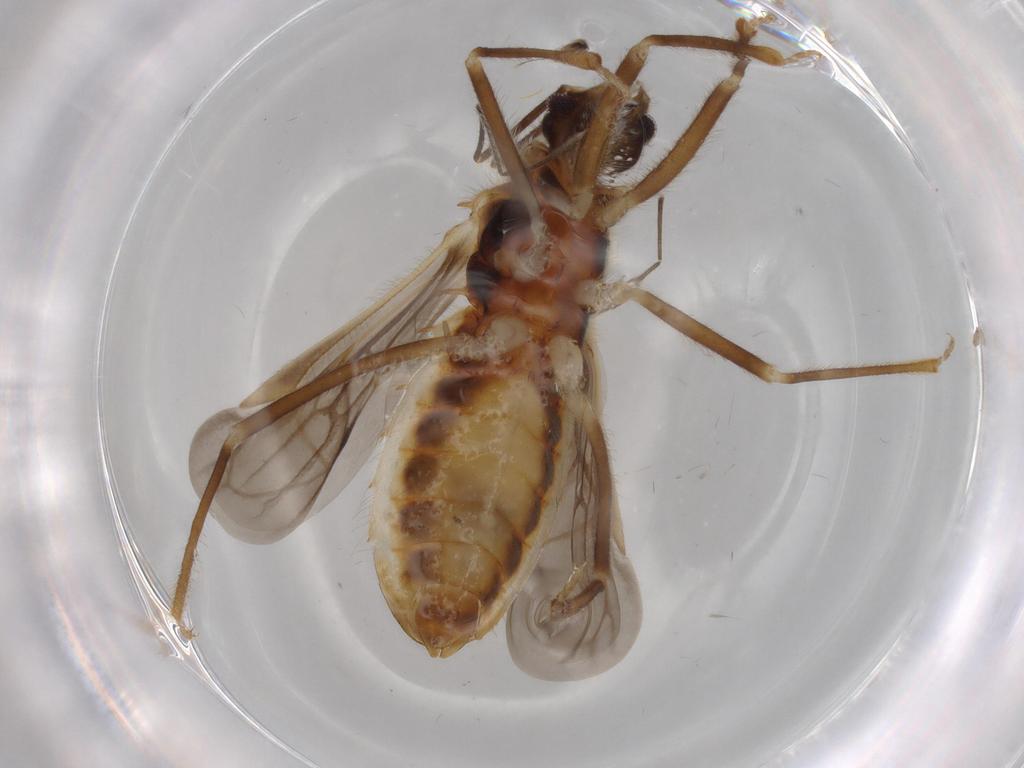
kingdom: Animalia
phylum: Arthropoda
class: Insecta
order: Hemiptera
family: Reduviidae
